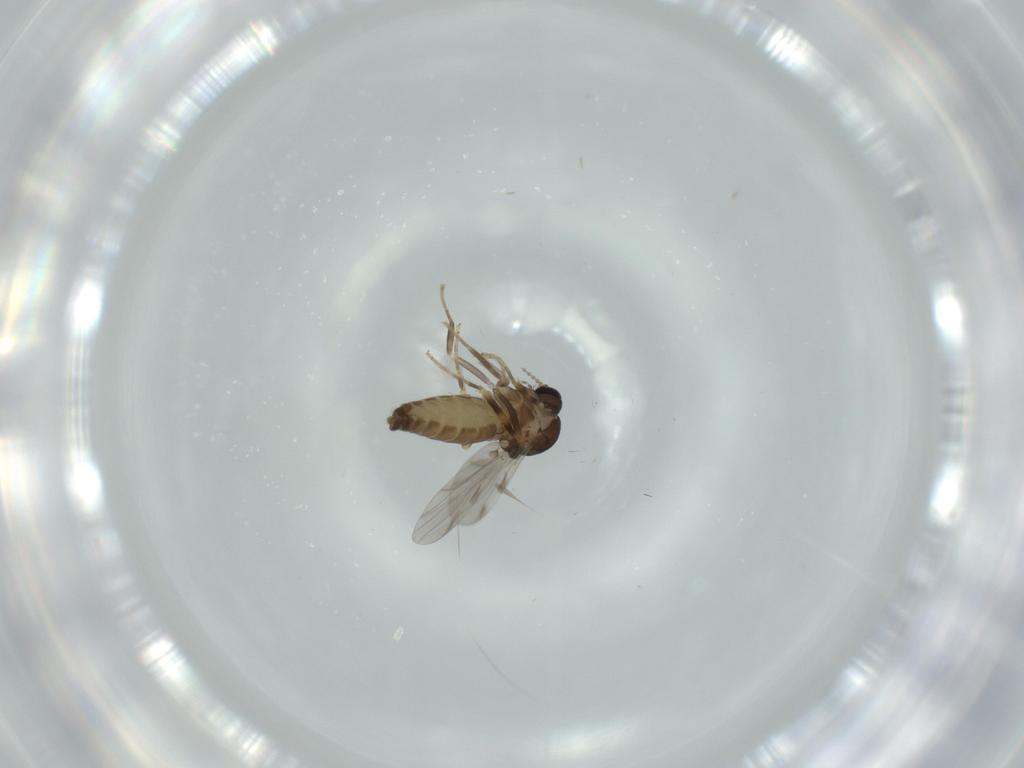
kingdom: Animalia
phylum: Arthropoda
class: Insecta
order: Diptera
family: Ceratopogonidae
